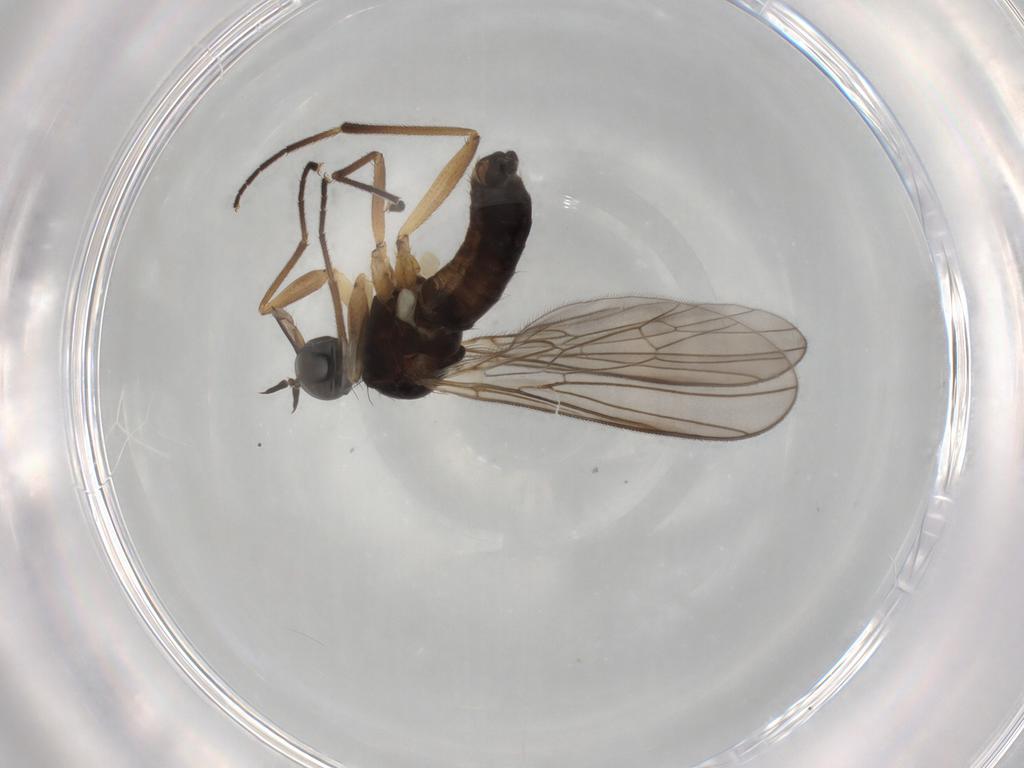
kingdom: Animalia
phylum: Arthropoda
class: Insecta
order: Diptera
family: Empididae
